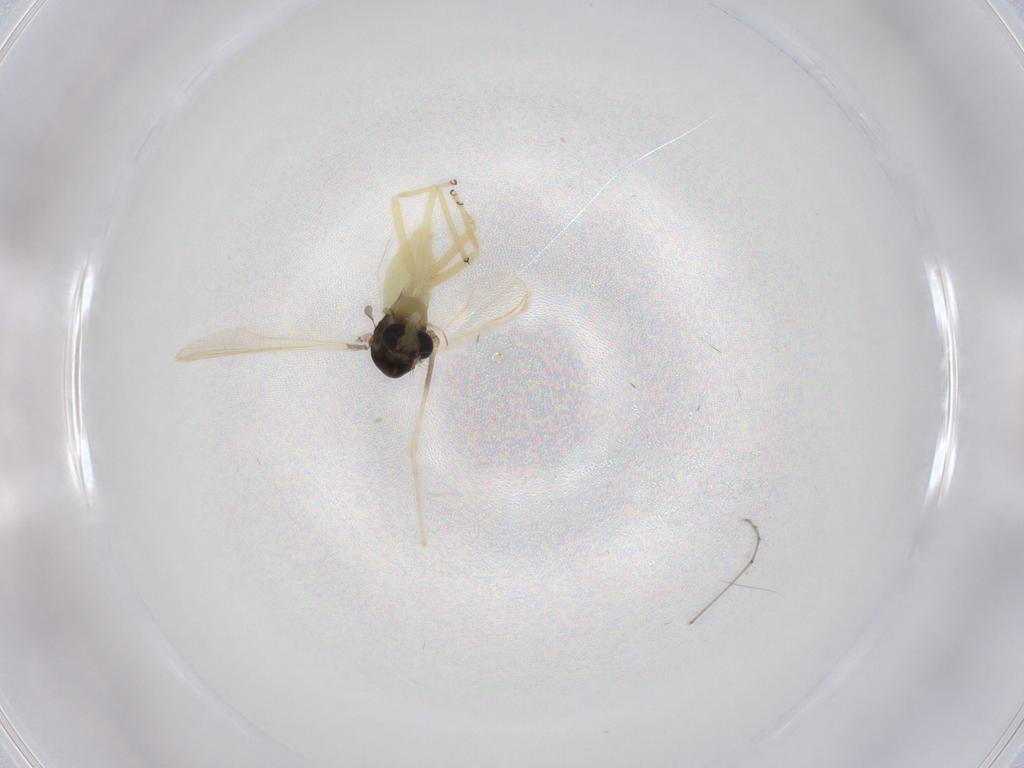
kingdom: Animalia
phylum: Arthropoda
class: Insecta
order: Diptera
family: Chironomidae
